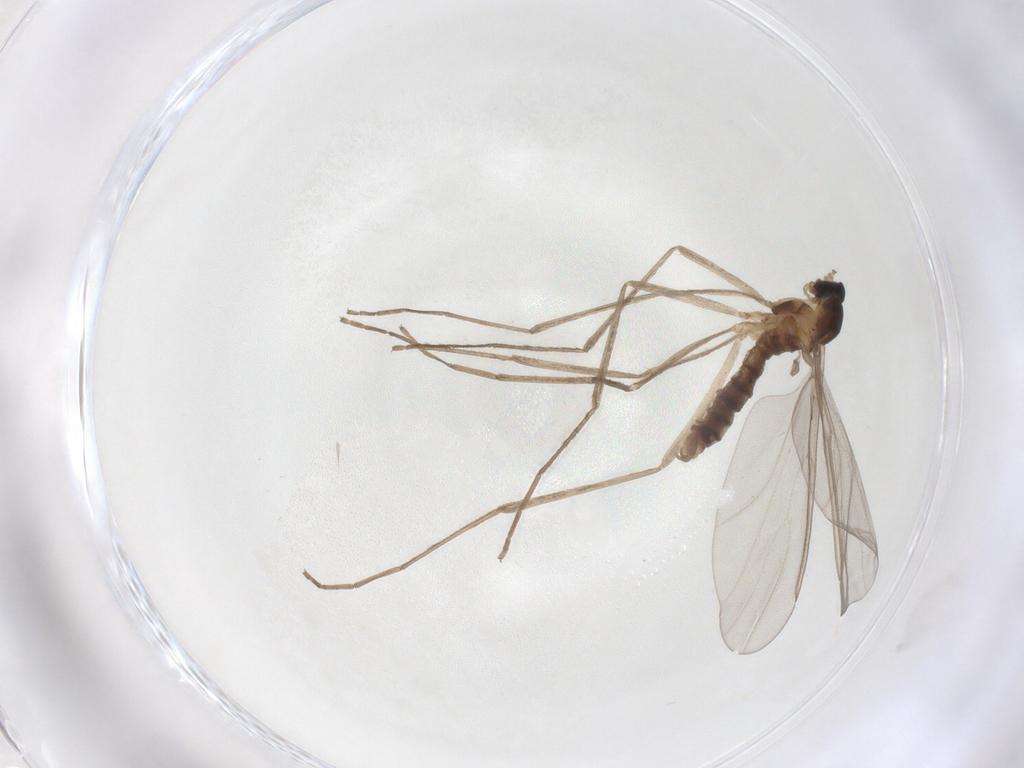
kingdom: Animalia
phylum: Arthropoda
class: Insecta
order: Diptera
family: Cecidomyiidae
